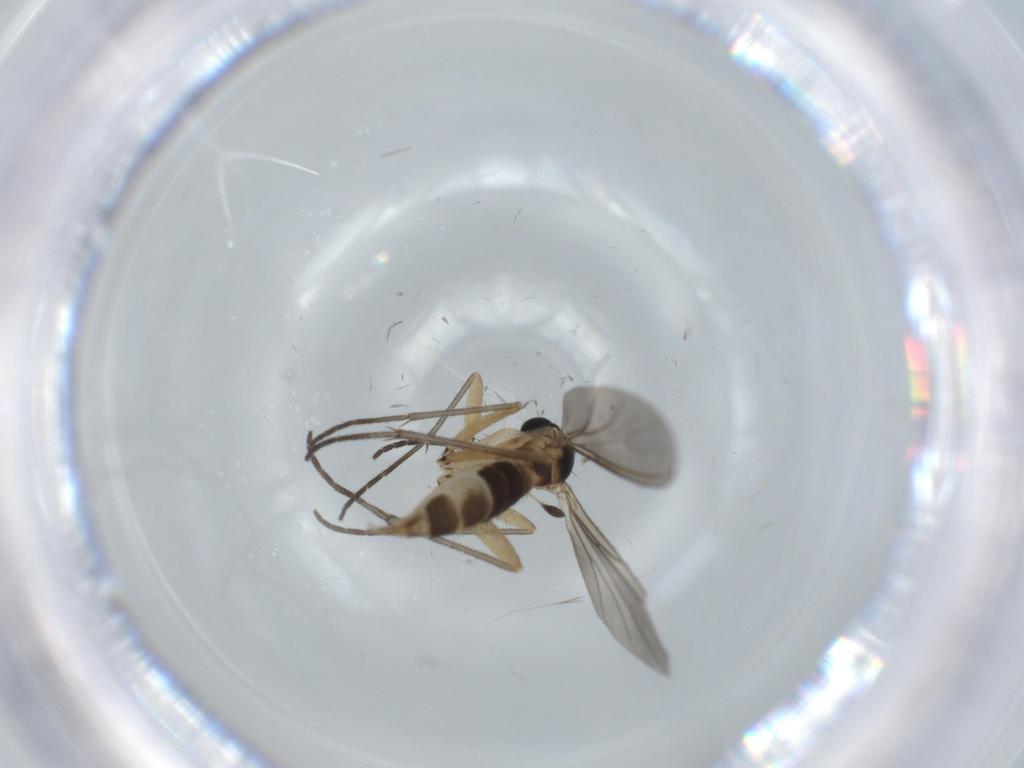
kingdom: Animalia
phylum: Arthropoda
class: Insecta
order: Diptera
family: Sciaridae
